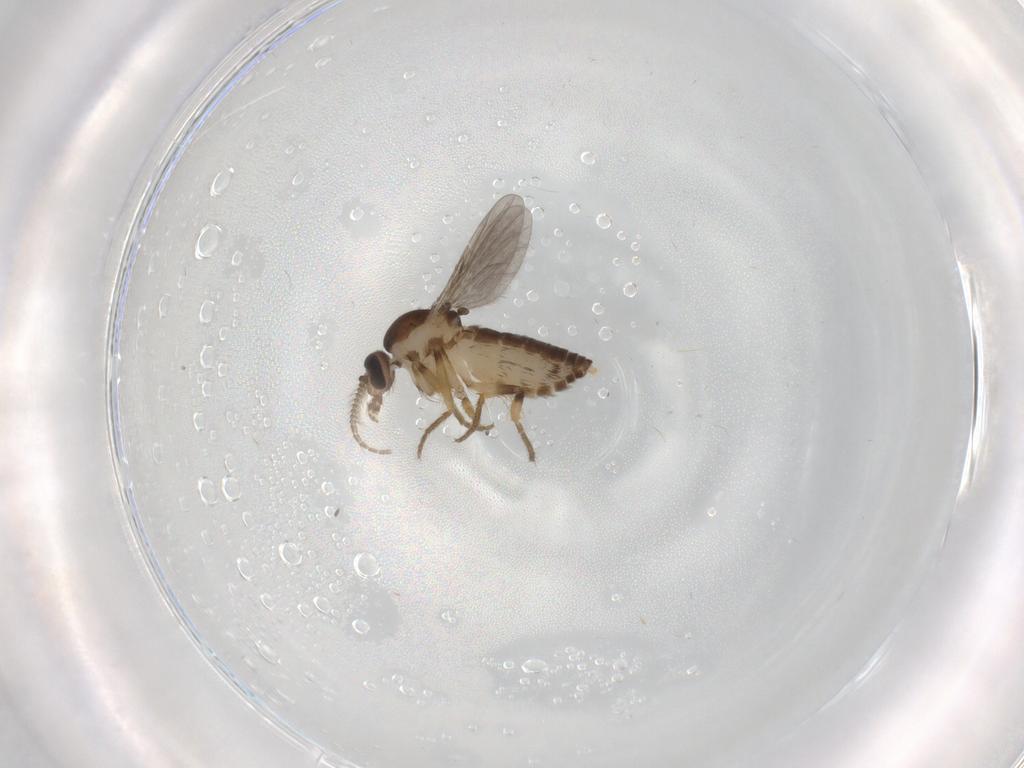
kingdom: Animalia
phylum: Arthropoda
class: Insecta
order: Diptera
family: Ceratopogonidae
